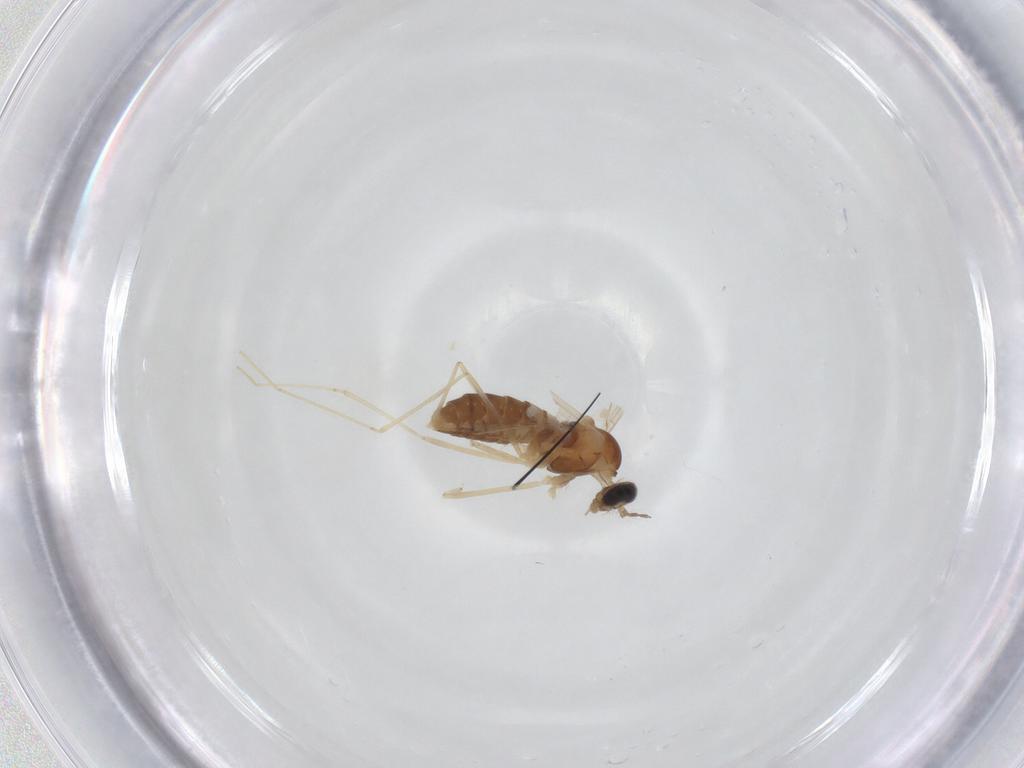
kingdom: Animalia
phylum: Arthropoda
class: Insecta
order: Diptera
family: Cecidomyiidae
